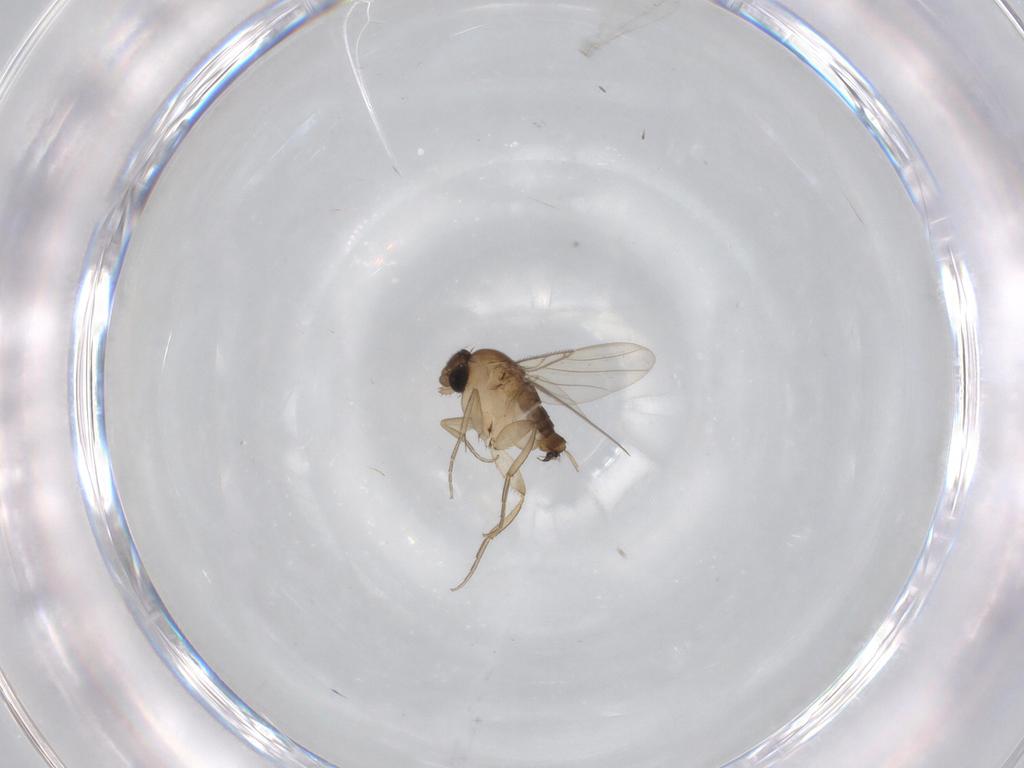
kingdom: Animalia
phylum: Arthropoda
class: Insecta
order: Diptera
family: Cecidomyiidae
